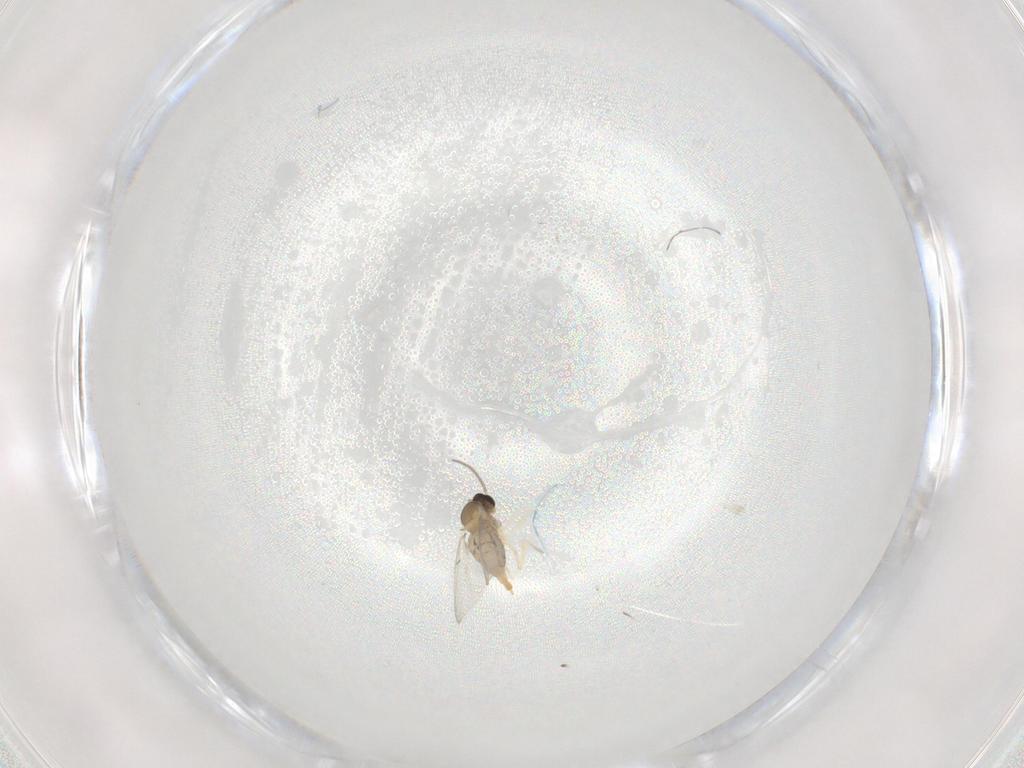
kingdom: Animalia
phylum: Arthropoda
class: Insecta
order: Diptera
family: Cecidomyiidae
